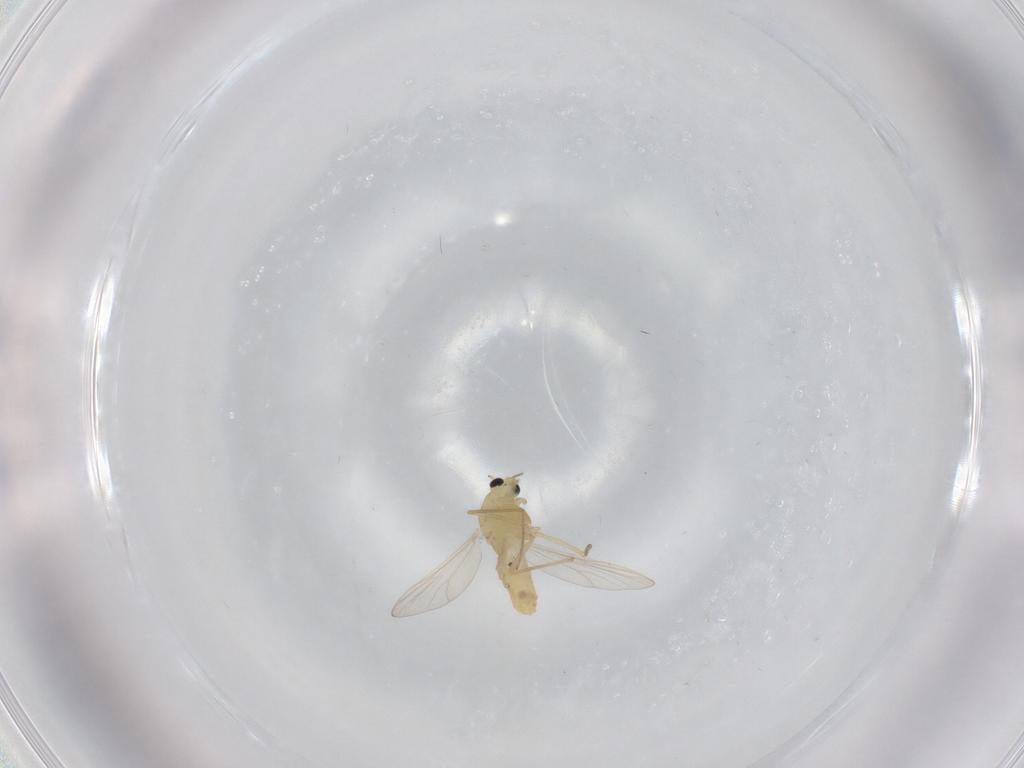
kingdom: Animalia
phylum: Arthropoda
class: Insecta
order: Diptera
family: Chironomidae
